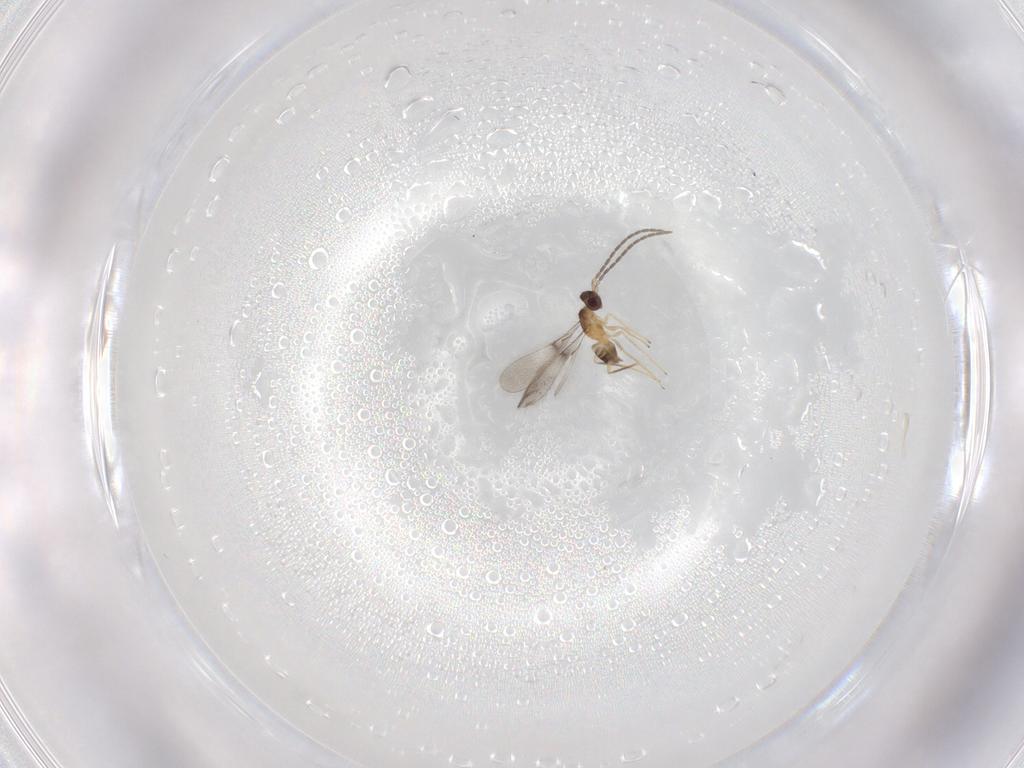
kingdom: Animalia
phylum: Arthropoda
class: Insecta
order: Hymenoptera
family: Mymaridae
